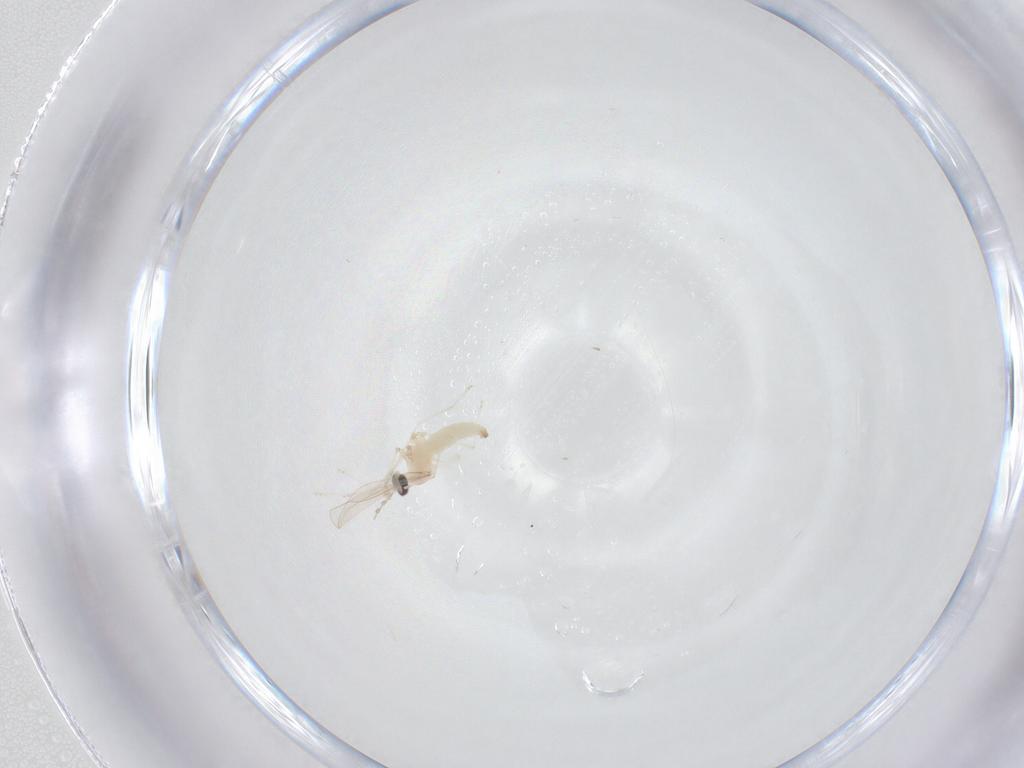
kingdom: Animalia
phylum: Arthropoda
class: Insecta
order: Diptera
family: Cecidomyiidae
